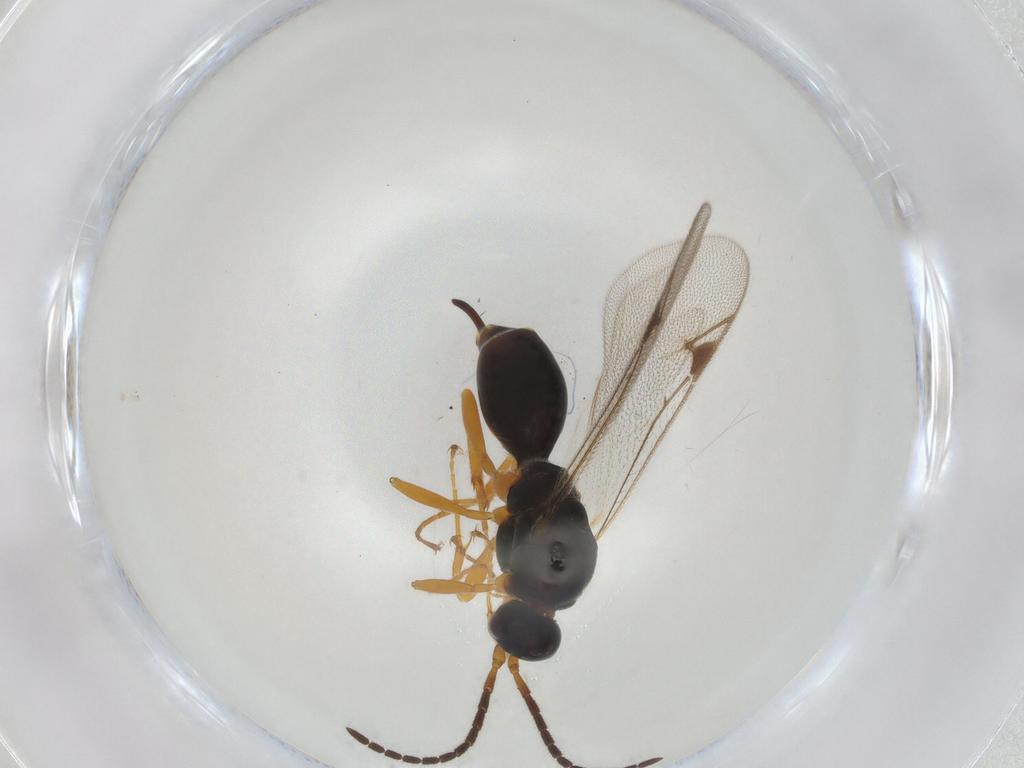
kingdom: Animalia
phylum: Arthropoda
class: Insecta
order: Hymenoptera
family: Proctotrupidae
